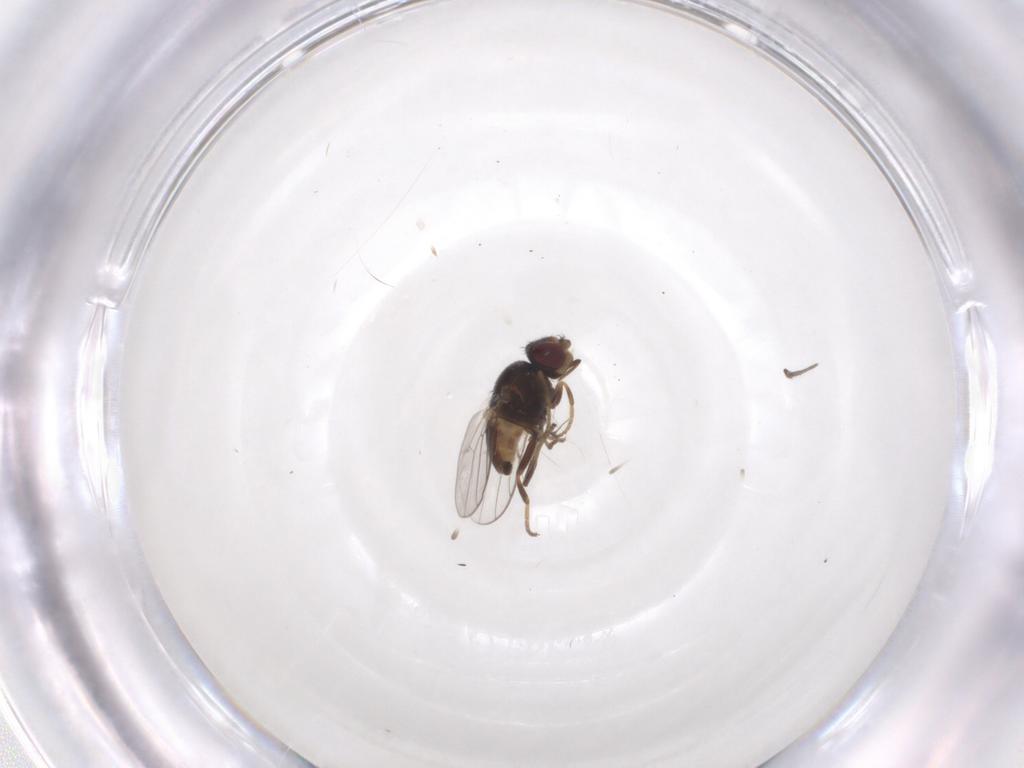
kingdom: Animalia
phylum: Arthropoda
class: Insecta
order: Diptera
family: Chloropidae
